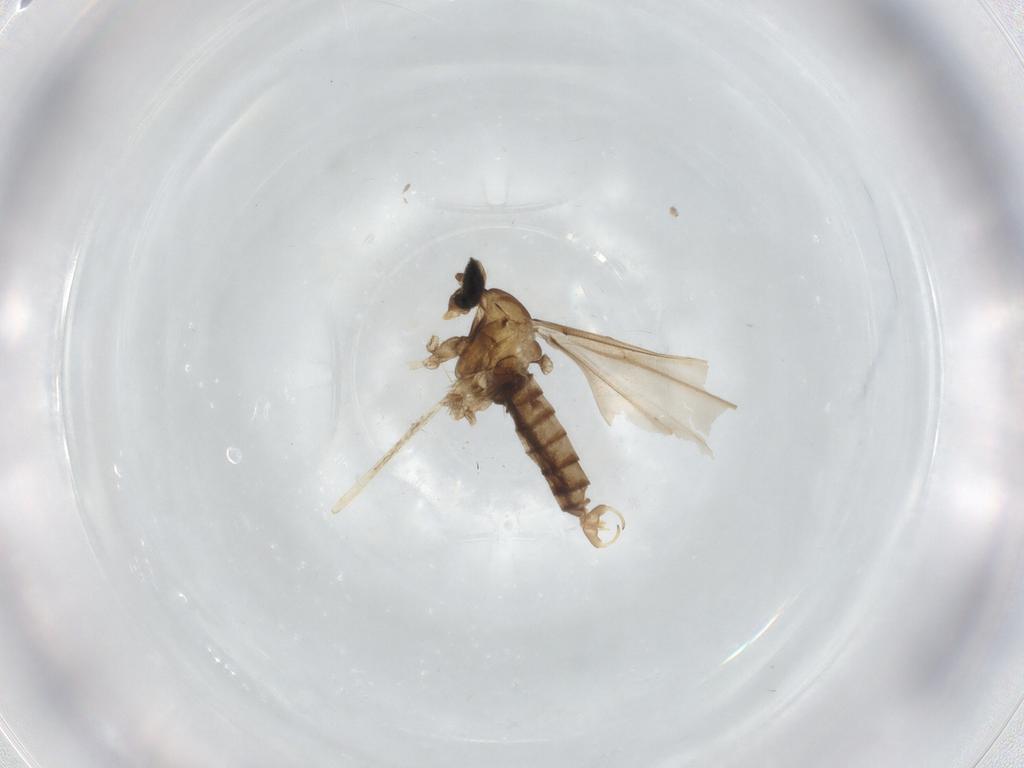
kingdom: Animalia
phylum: Arthropoda
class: Insecta
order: Diptera
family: Cecidomyiidae
